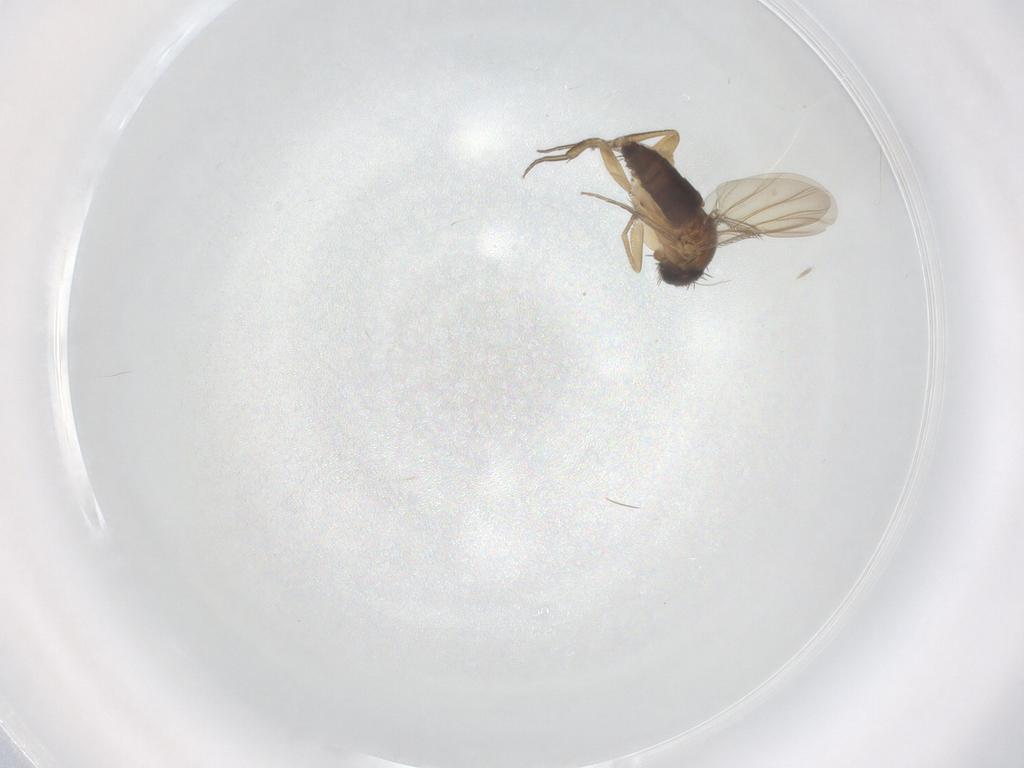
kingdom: Animalia
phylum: Arthropoda
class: Insecta
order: Diptera
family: Phoridae
